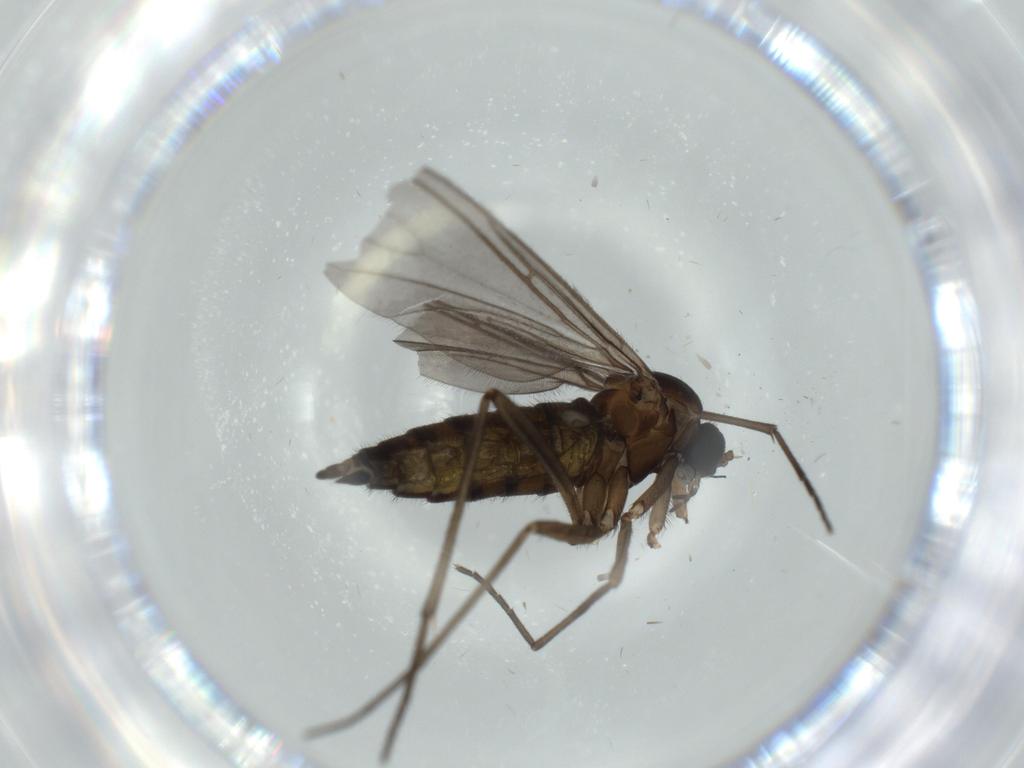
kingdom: Animalia
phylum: Arthropoda
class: Insecta
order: Diptera
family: Sciaridae
